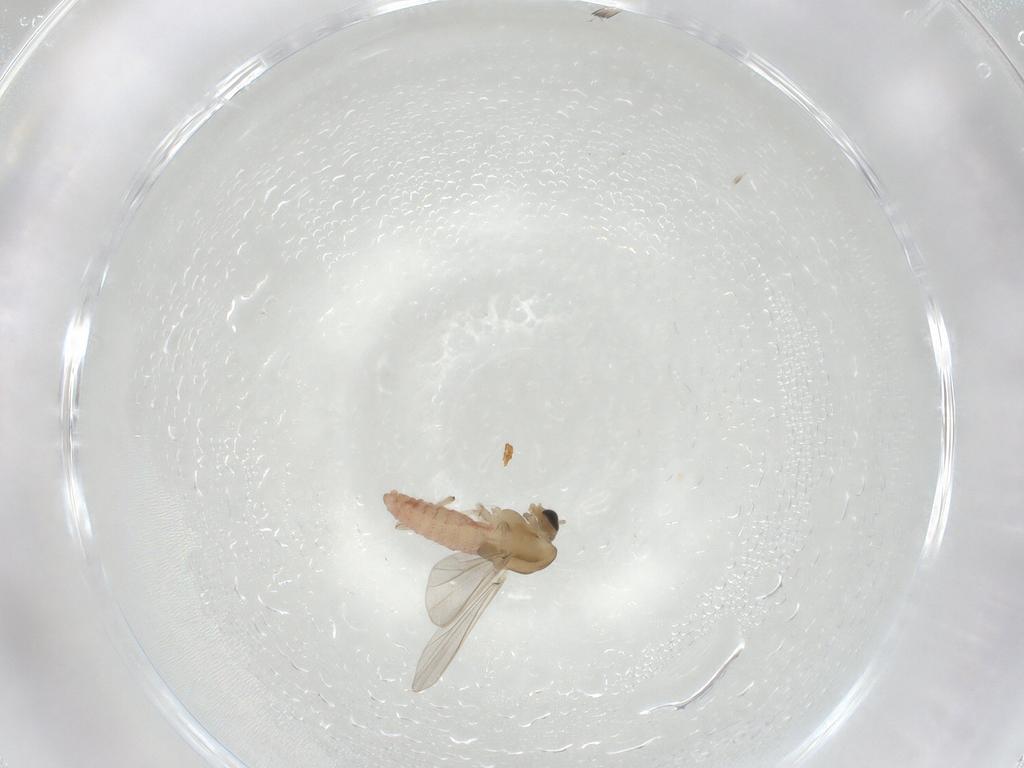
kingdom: Animalia
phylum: Arthropoda
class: Insecta
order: Diptera
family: Chironomidae
